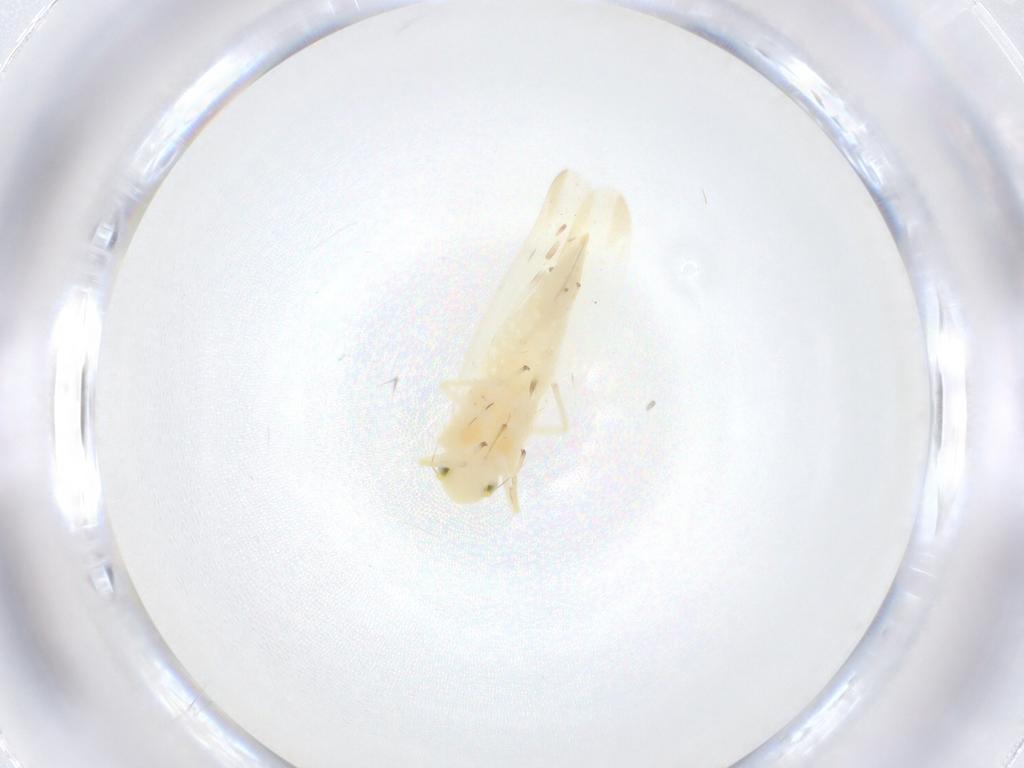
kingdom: Animalia
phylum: Arthropoda
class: Insecta
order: Hemiptera
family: Cicadellidae
